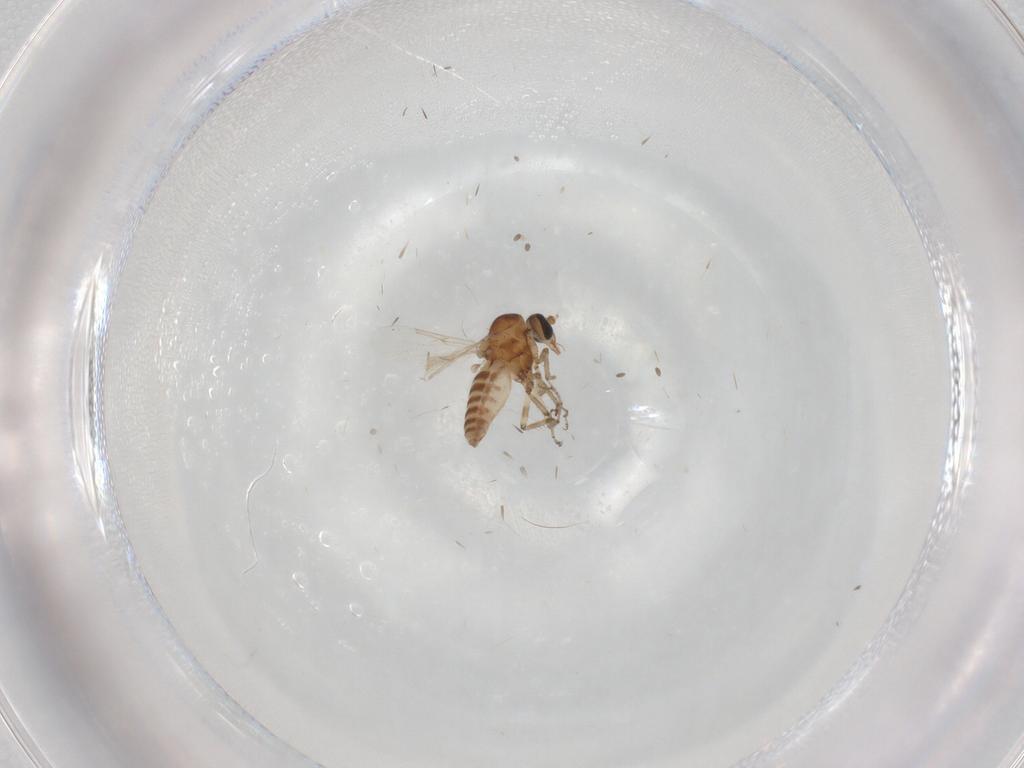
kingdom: Animalia
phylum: Arthropoda
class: Insecta
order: Diptera
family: Ceratopogonidae
